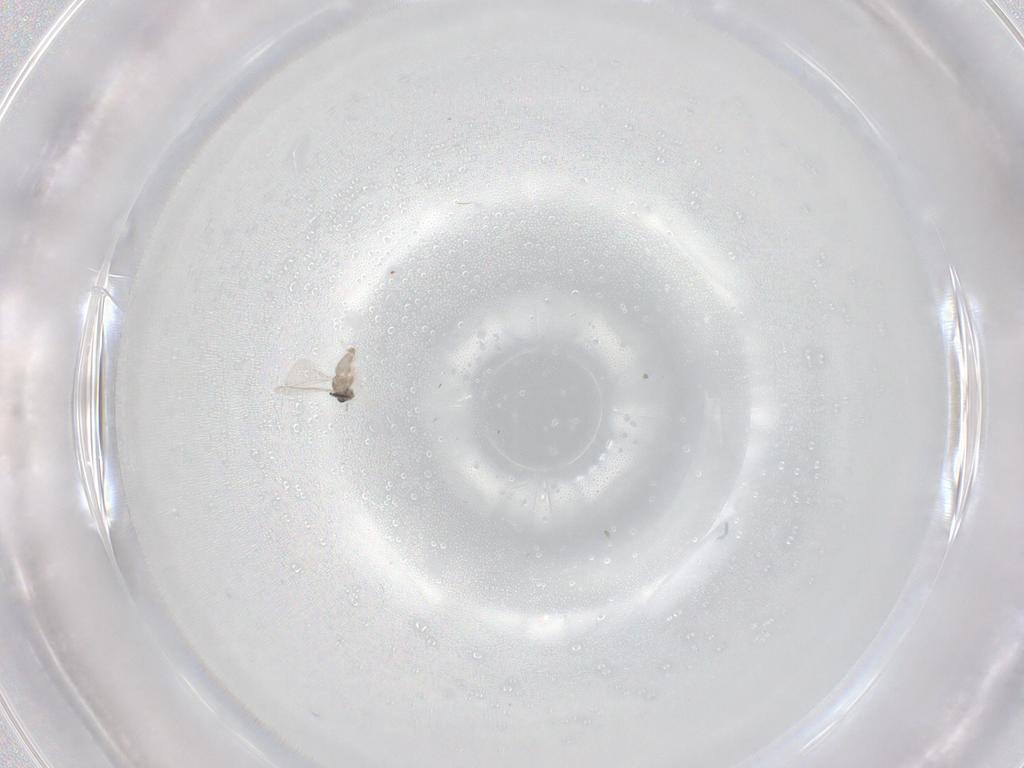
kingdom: Animalia
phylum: Arthropoda
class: Insecta
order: Diptera
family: Cecidomyiidae
